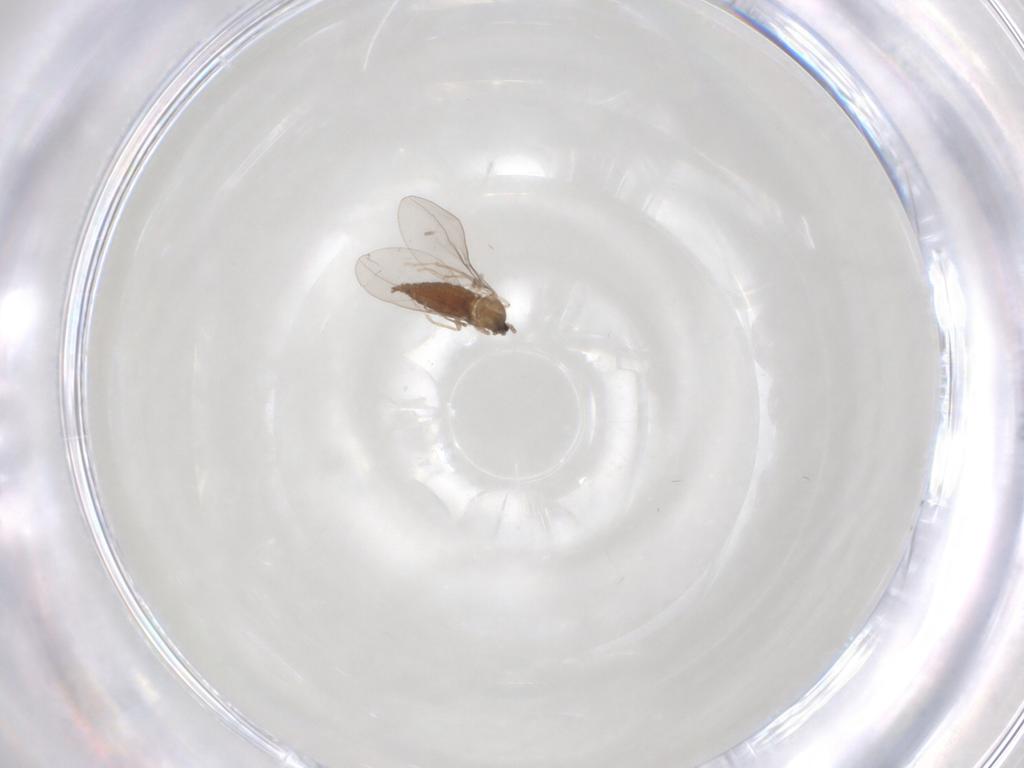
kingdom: Animalia
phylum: Arthropoda
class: Insecta
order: Diptera
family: Cecidomyiidae
